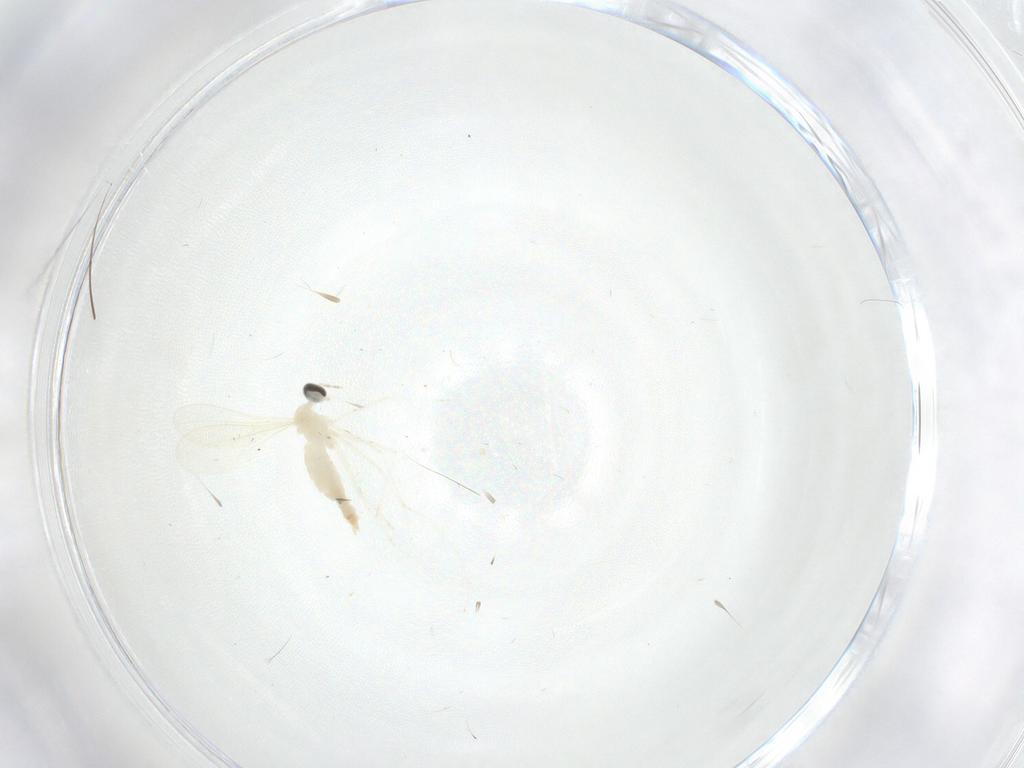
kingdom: Animalia
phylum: Arthropoda
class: Insecta
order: Diptera
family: Cecidomyiidae
